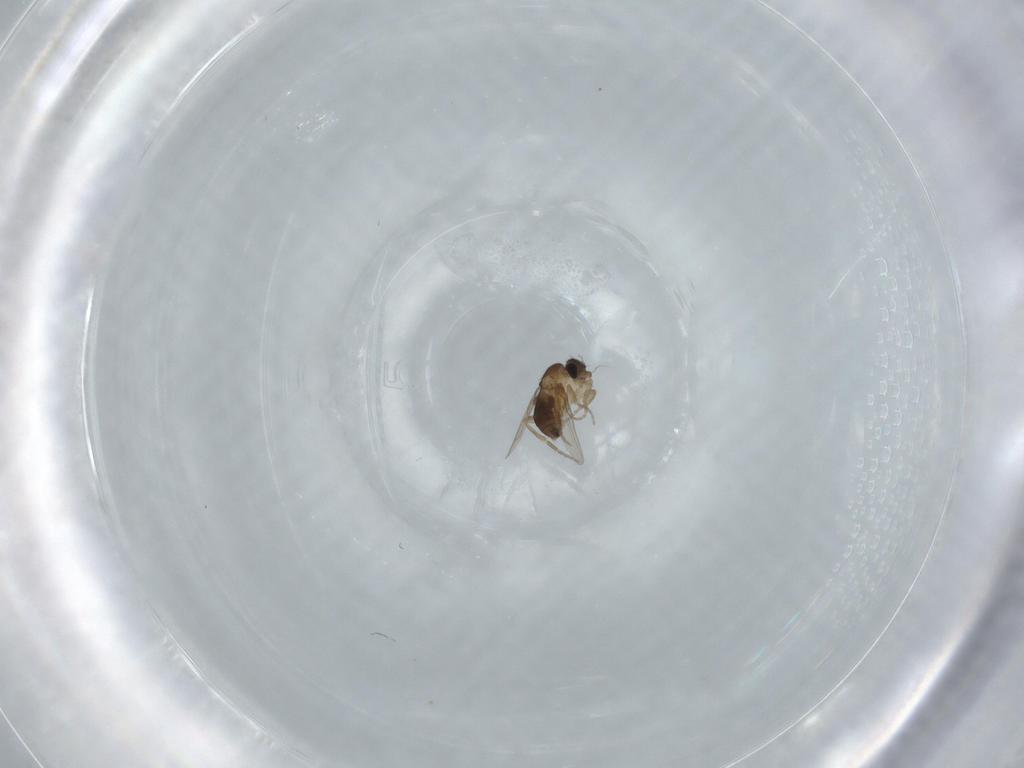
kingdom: Animalia
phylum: Arthropoda
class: Insecta
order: Diptera
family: Phoridae
